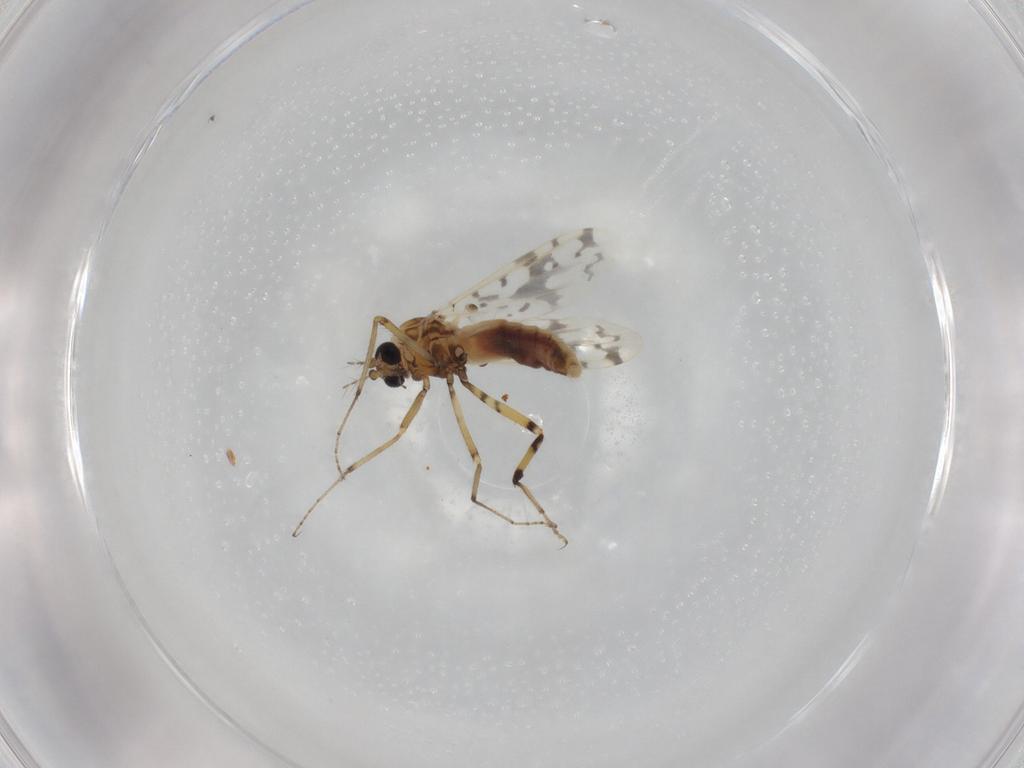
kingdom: Animalia
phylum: Arthropoda
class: Insecta
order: Diptera
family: Ceratopogonidae
